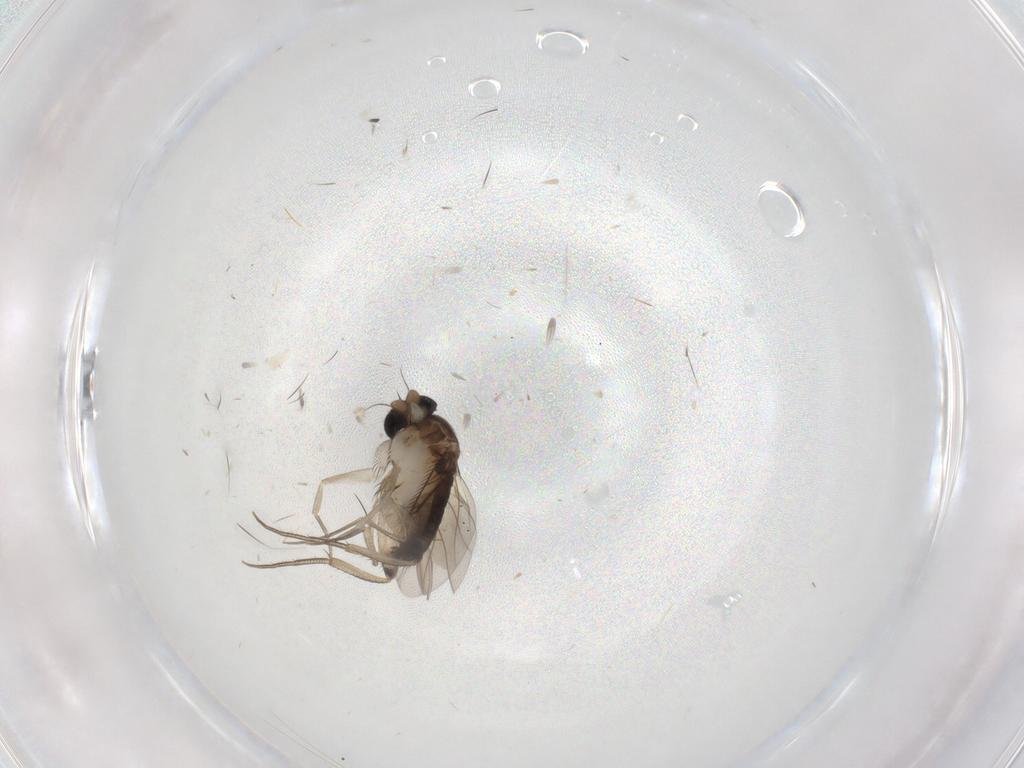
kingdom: Animalia
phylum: Arthropoda
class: Insecta
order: Diptera
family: Phoridae
